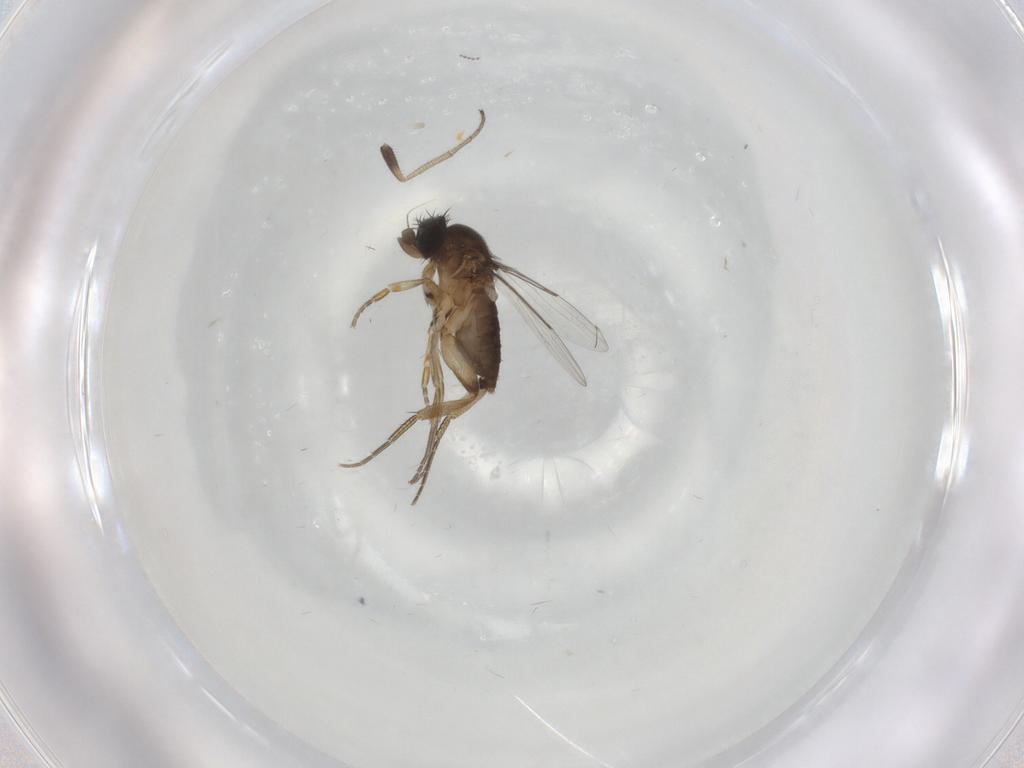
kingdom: Animalia
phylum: Arthropoda
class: Insecta
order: Diptera
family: Phoridae
